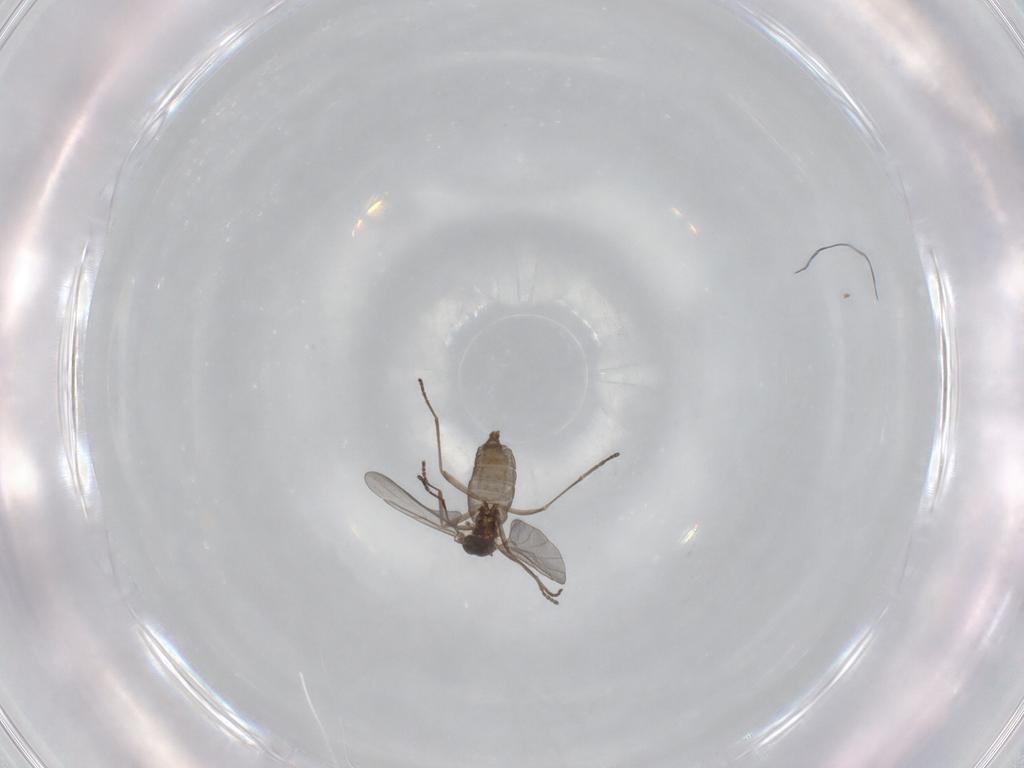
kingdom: Animalia
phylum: Arthropoda
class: Insecta
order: Diptera
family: Cecidomyiidae
